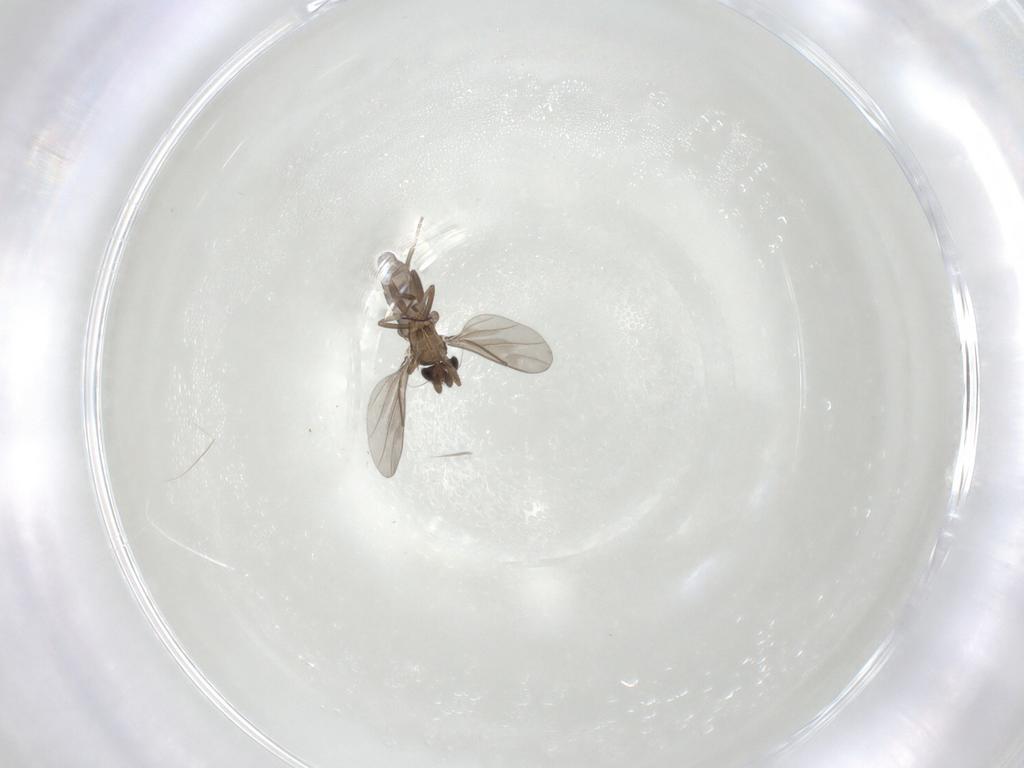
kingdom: Animalia
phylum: Arthropoda
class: Insecta
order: Diptera
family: Phoridae
